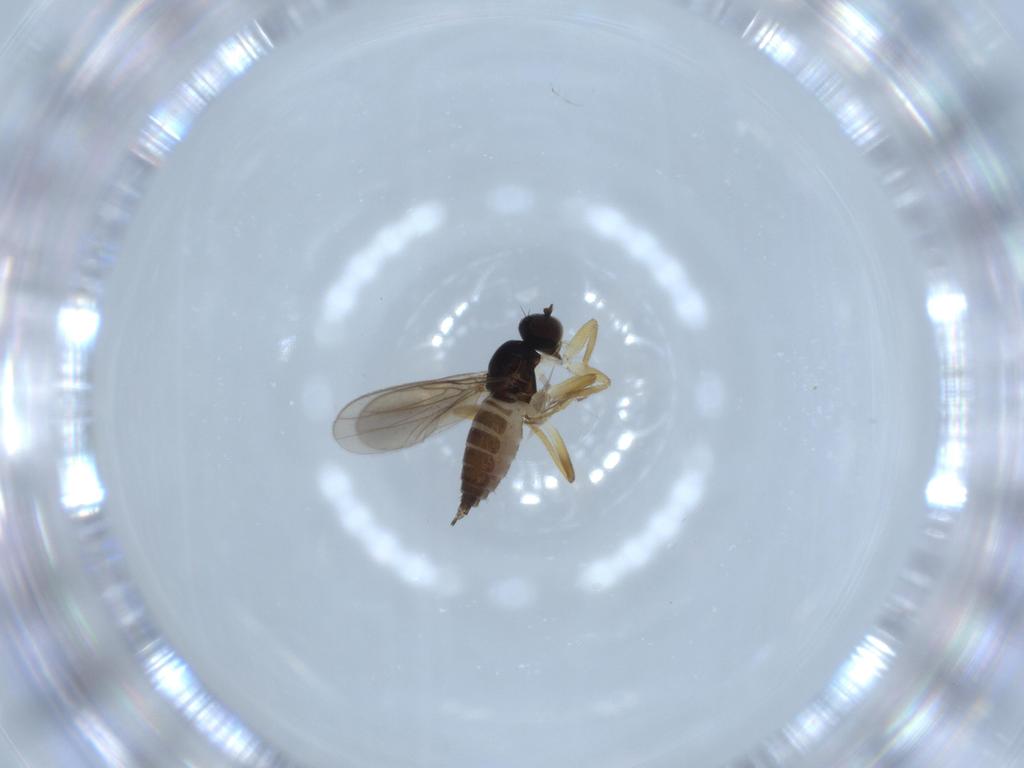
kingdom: Animalia
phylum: Arthropoda
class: Insecta
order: Diptera
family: Hybotidae
